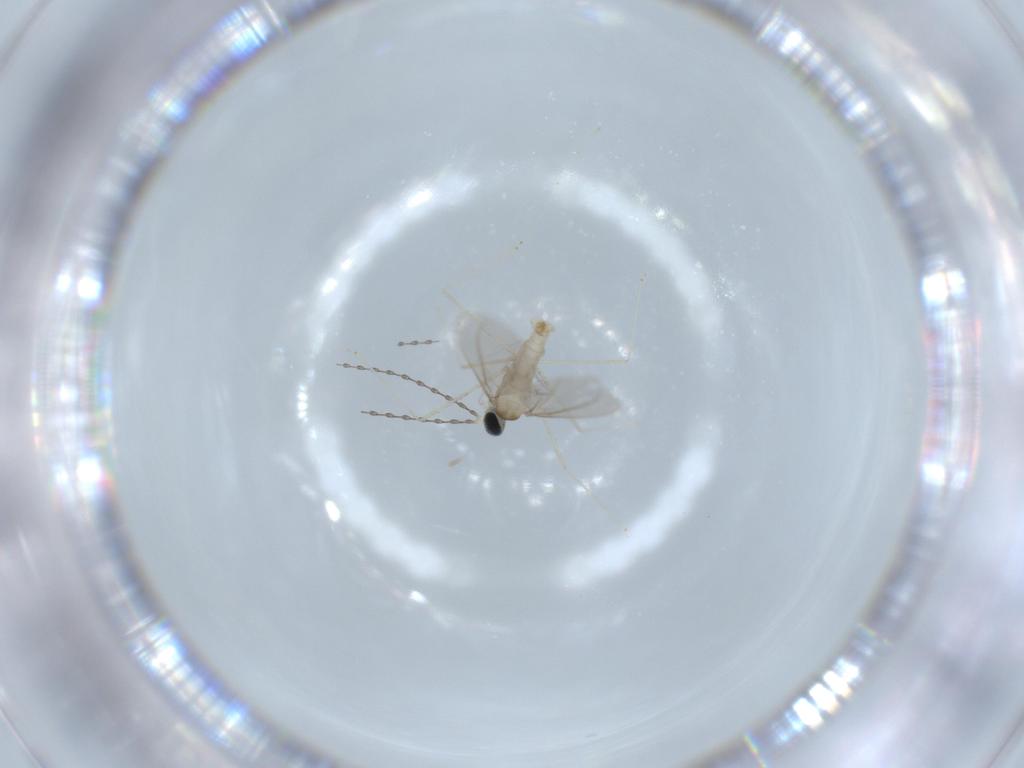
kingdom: Animalia
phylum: Arthropoda
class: Insecta
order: Diptera
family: Cecidomyiidae
